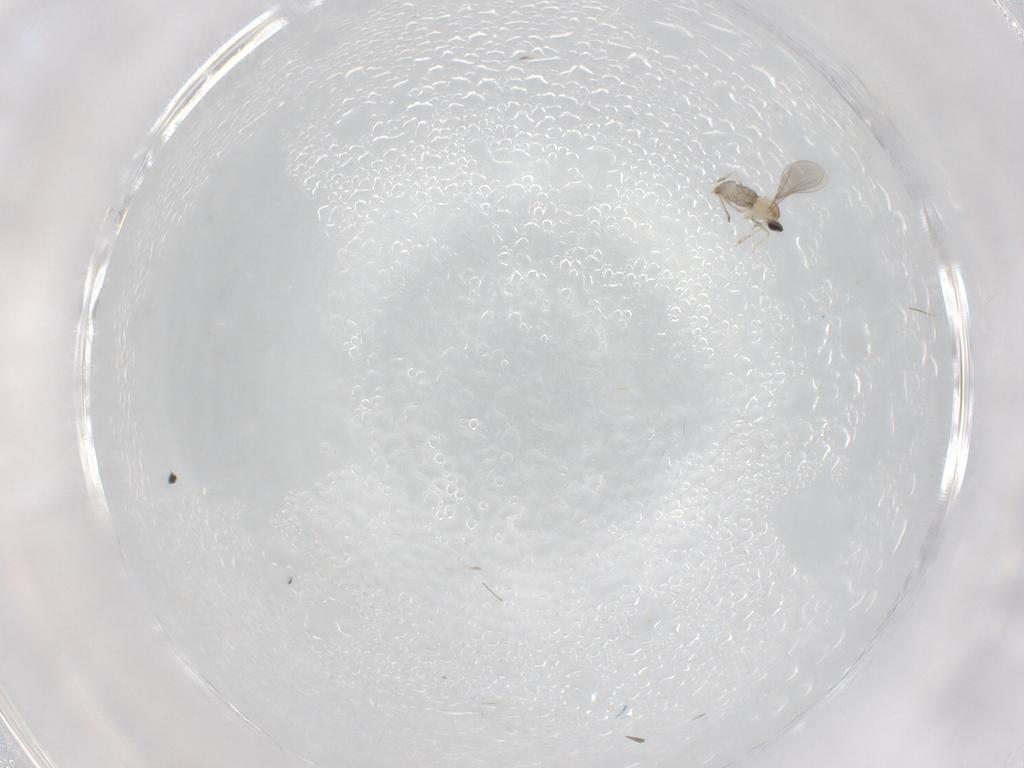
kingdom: Animalia
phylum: Arthropoda
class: Insecta
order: Diptera
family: Cecidomyiidae
